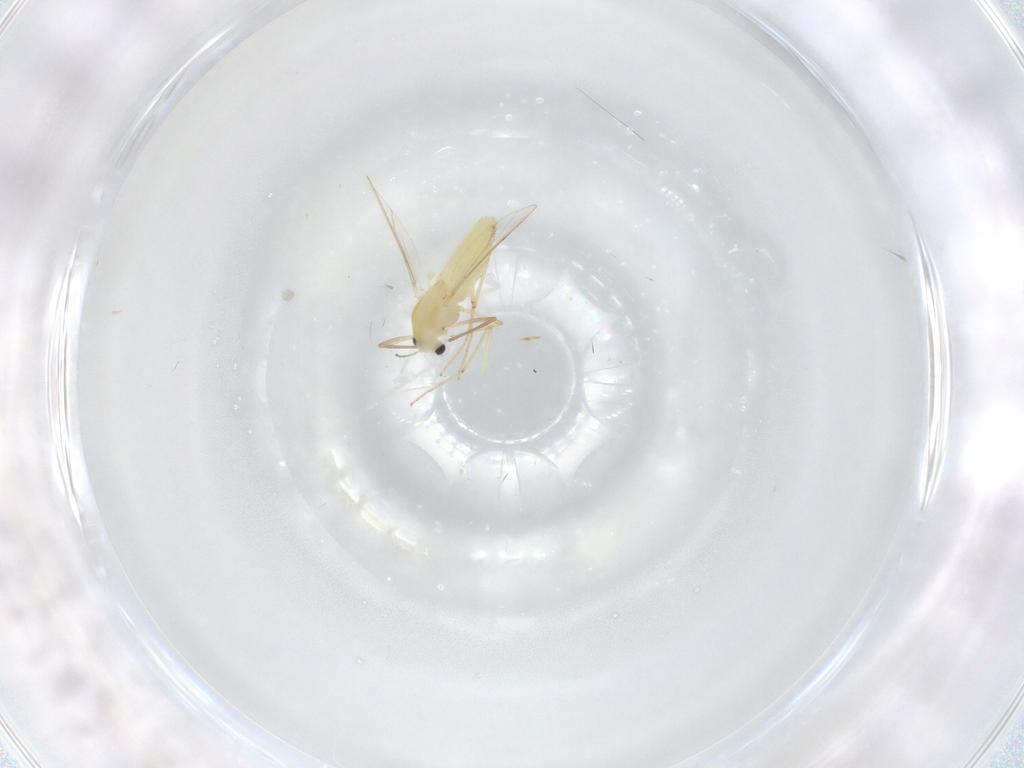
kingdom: Animalia
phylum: Arthropoda
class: Insecta
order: Diptera
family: Chironomidae
